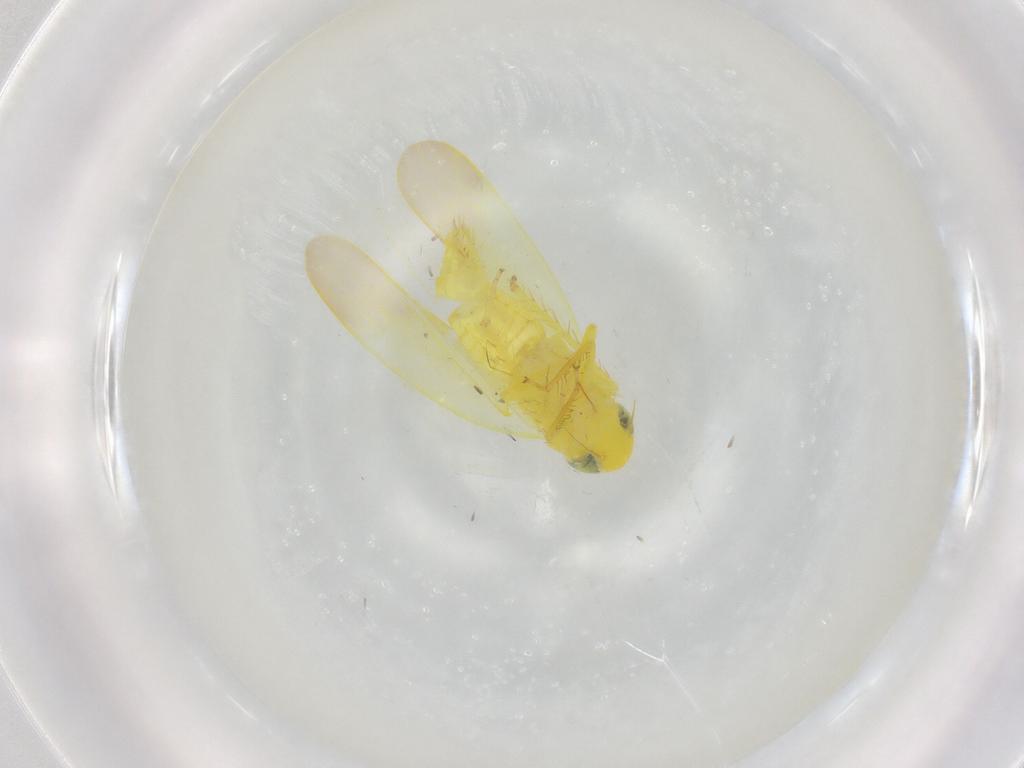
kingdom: Animalia
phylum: Arthropoda
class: Insecta
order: Hemiptera
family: Cicadellidae
